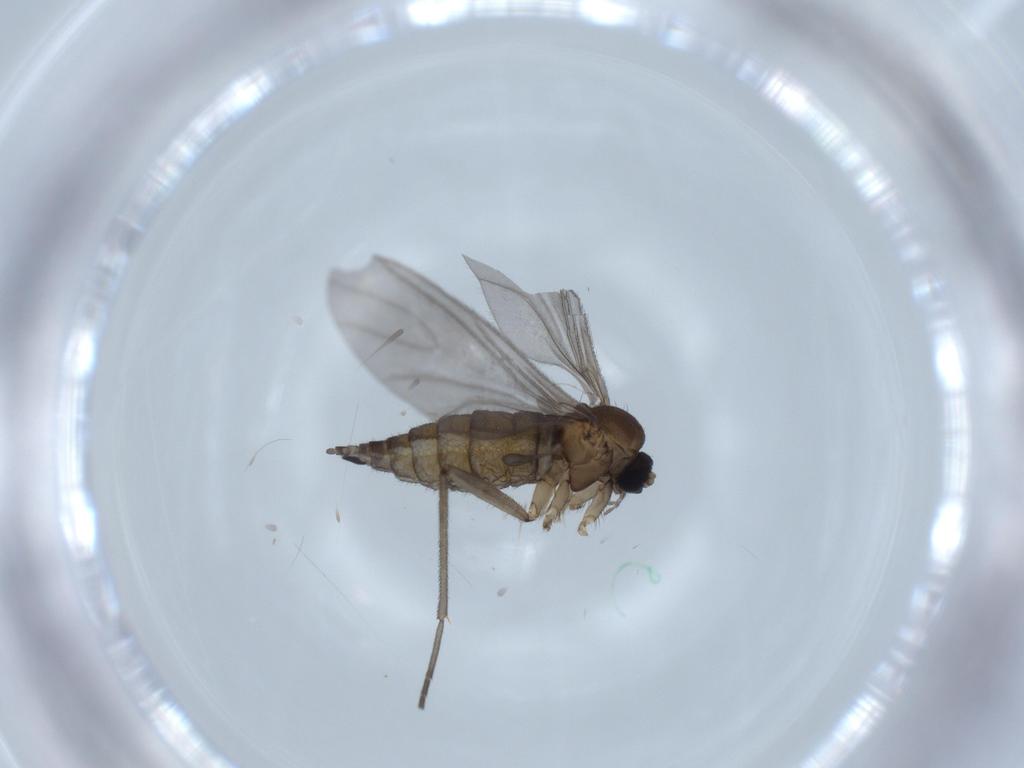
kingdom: Animalia
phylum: Arthropoda
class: Insecta
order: Diptera
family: Sciaridae
